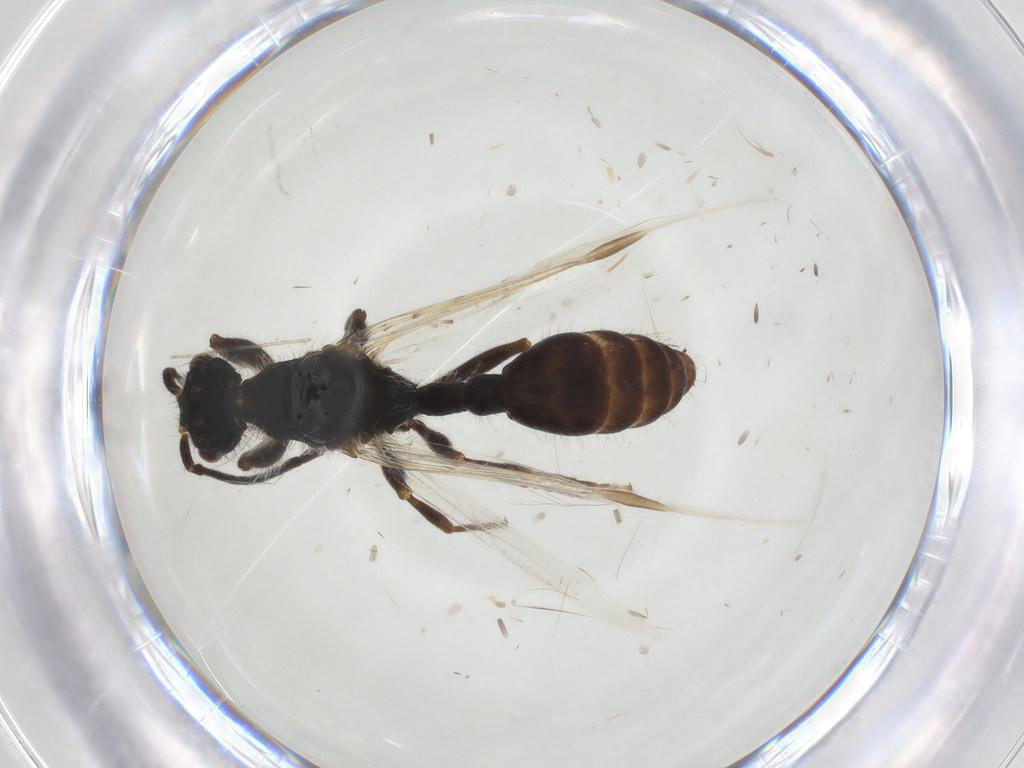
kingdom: Animalia
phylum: Arthropoda
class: Insecta
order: Hymenoptera
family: Formicidae
